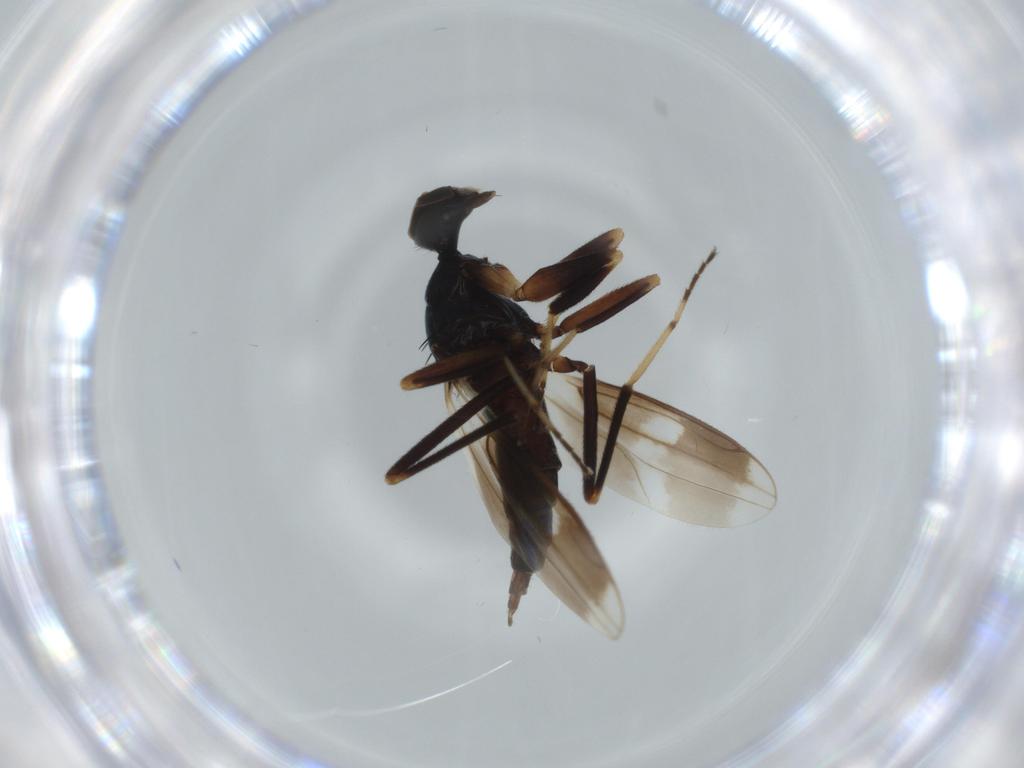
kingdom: Animalia
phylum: Arthropoda
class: Insecta
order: Diptera
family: Hybotidae
